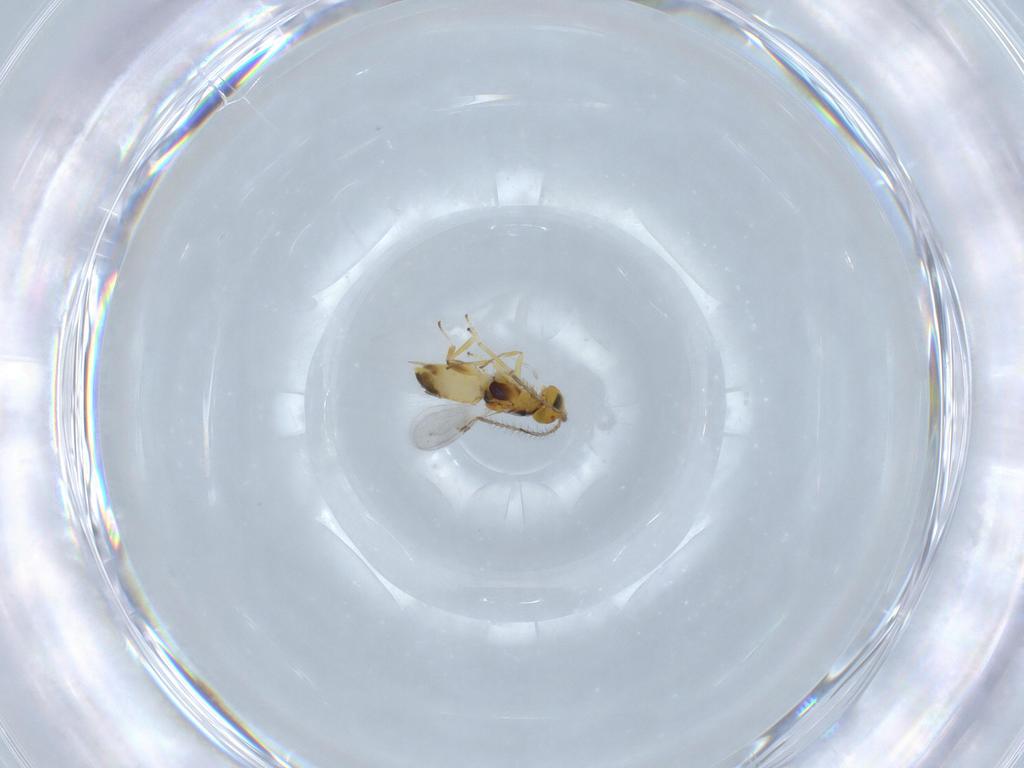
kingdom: Animalia
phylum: Arthropoda
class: Insecta
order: Hymenoptera
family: Encyrtidae
